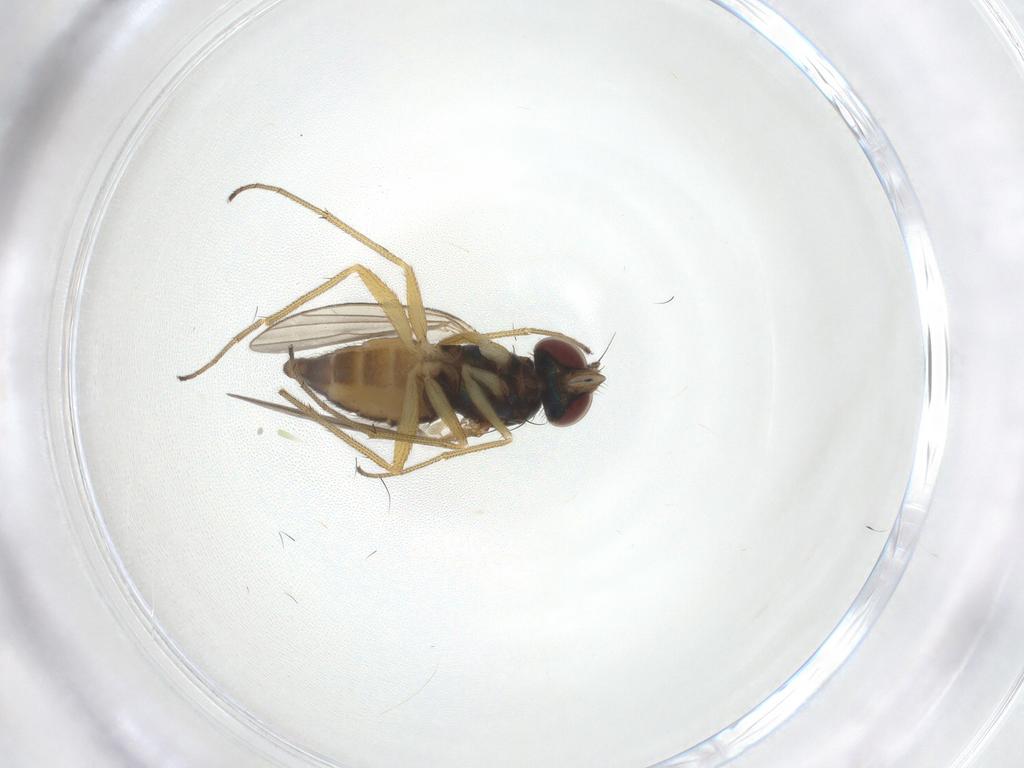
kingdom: Animalia
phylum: Arthropoda
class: Insecta
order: Diptera
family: Dolichopodidae
